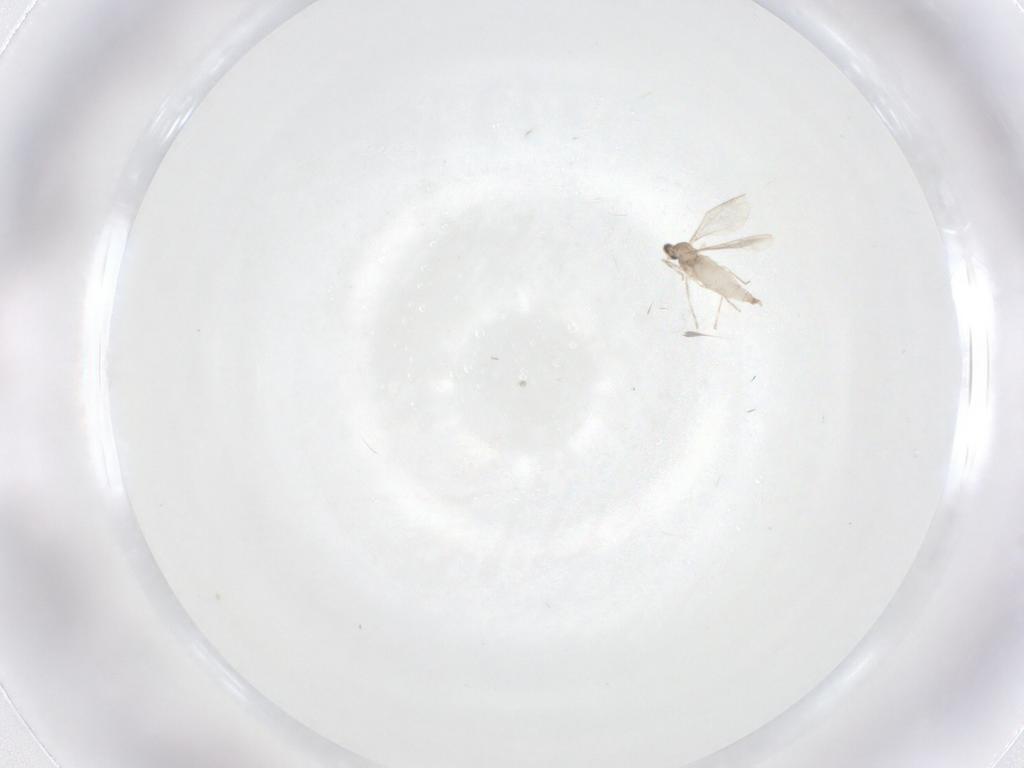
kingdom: Animalia
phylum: Arthropoda
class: Insecta
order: Diptera
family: Cecidomyiidae
